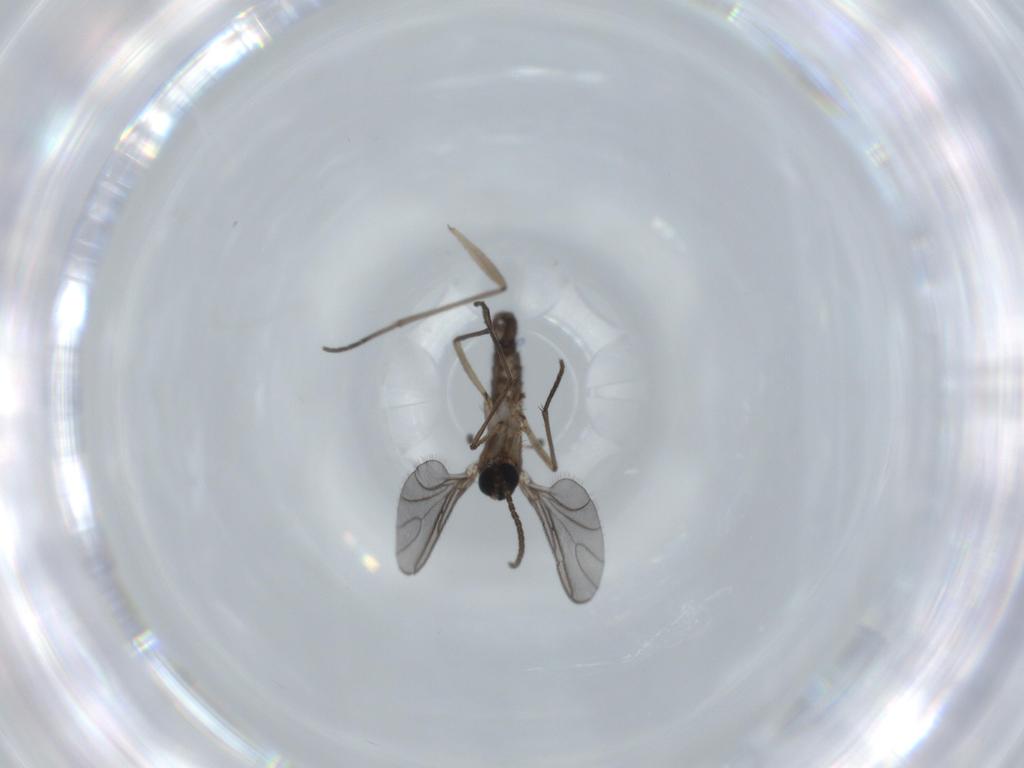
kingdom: Animalia
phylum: Arthropoda
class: Insecta
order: Diptera
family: Sciaridae
